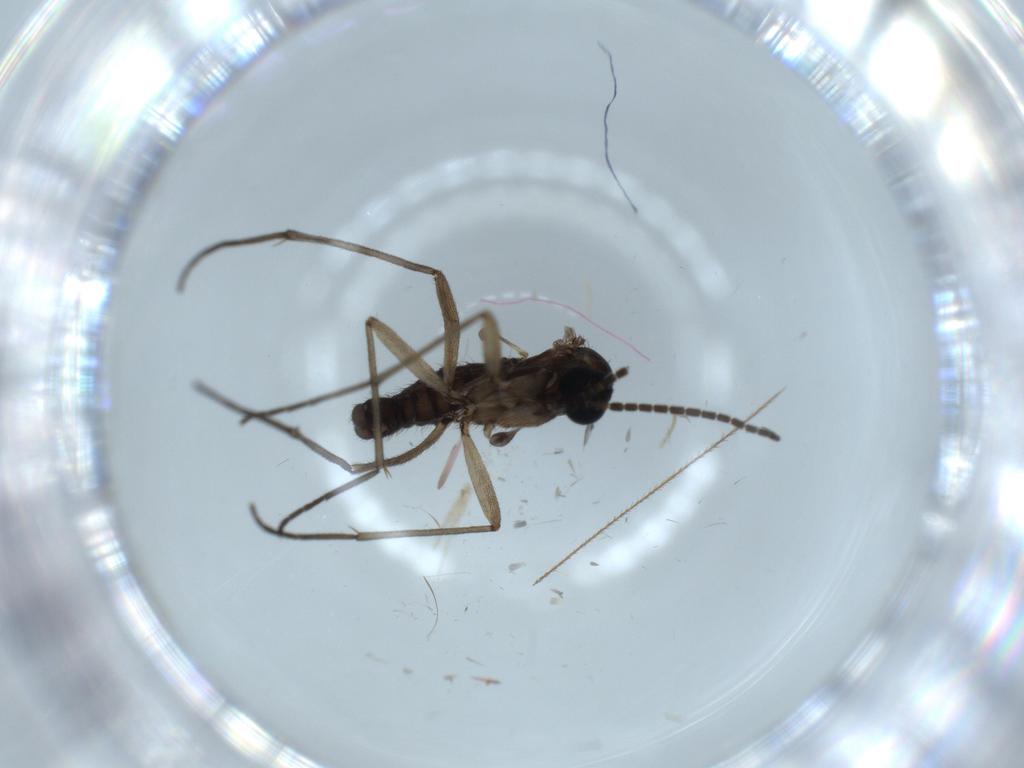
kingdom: Animalia
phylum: Arthropoda
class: Insecta
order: Diptera
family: Sciaridae
